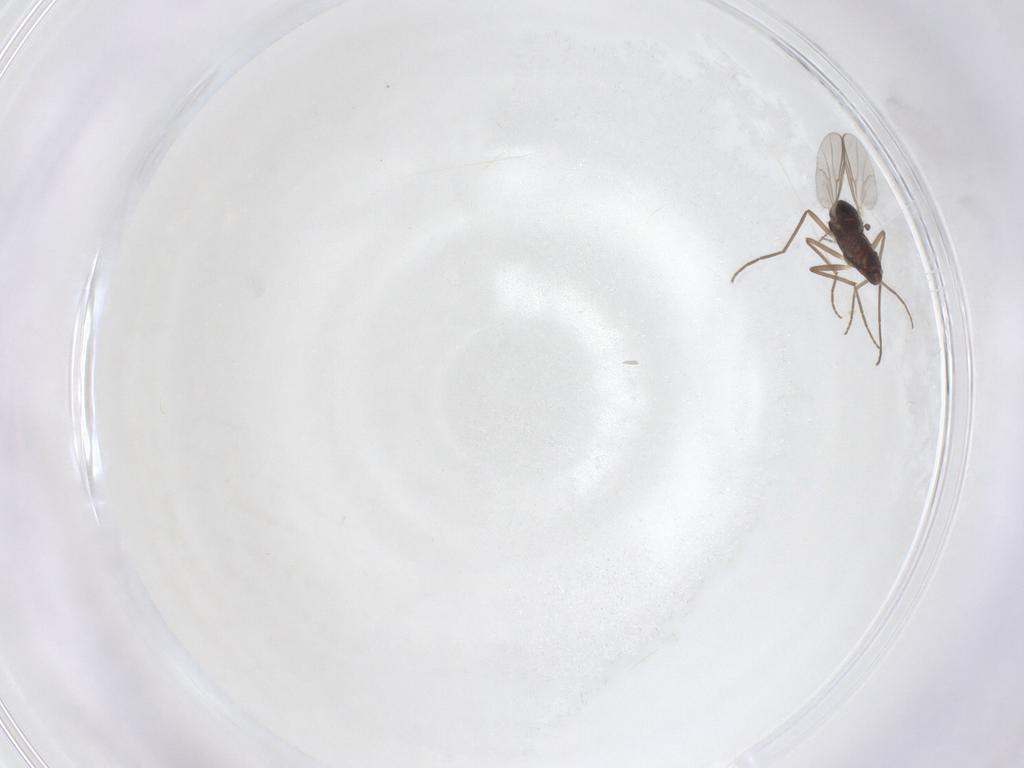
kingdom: Animalia
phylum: Arthropoda
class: Insecta
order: Diptera
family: Chironomidae
